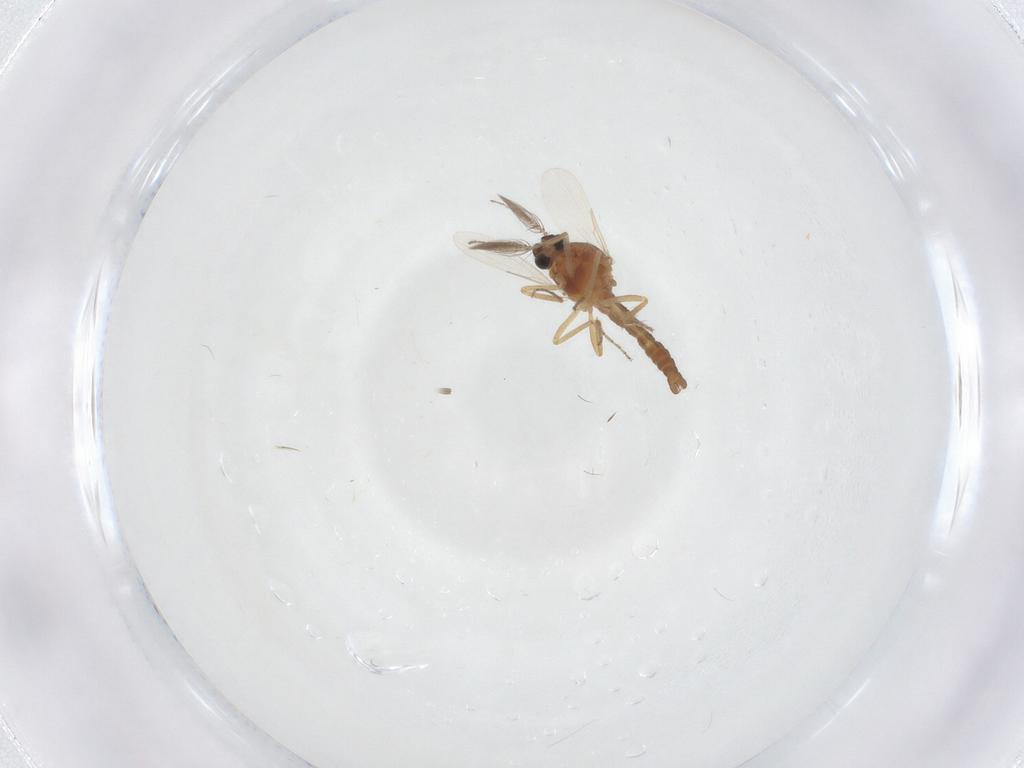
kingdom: Animalia
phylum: Arthropoda
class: Insecta
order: Diptera
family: Ceratopogonidae
